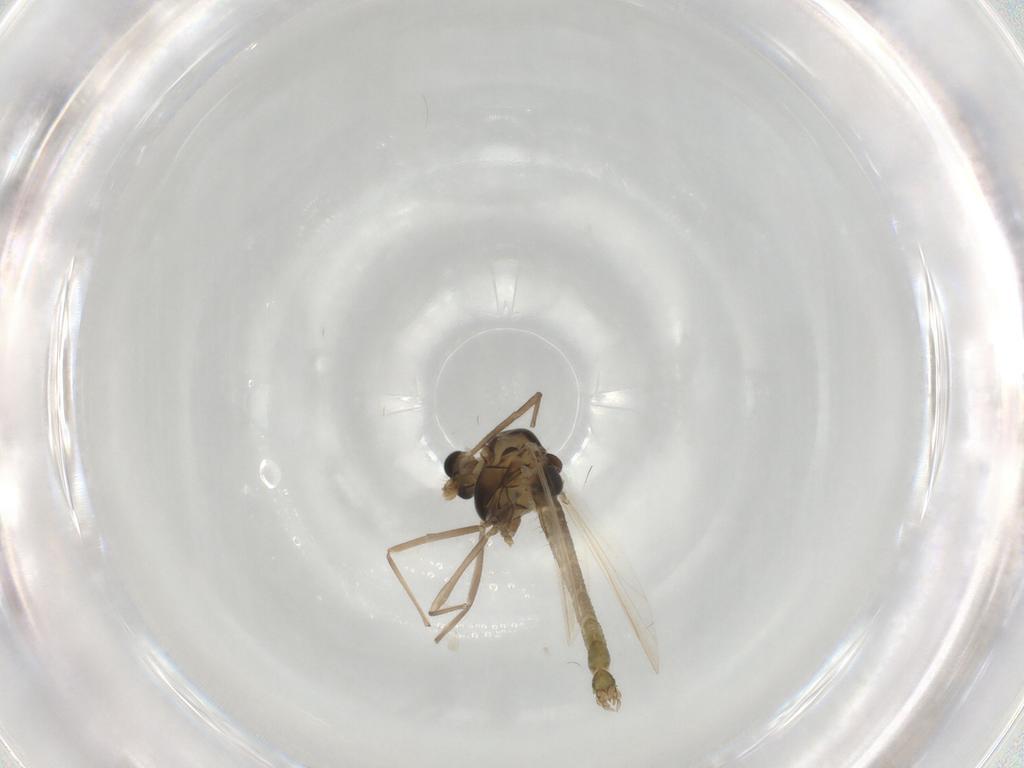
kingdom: Animalia
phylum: Arthropoda
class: Insecta
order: Diptera
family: Chironomidae
